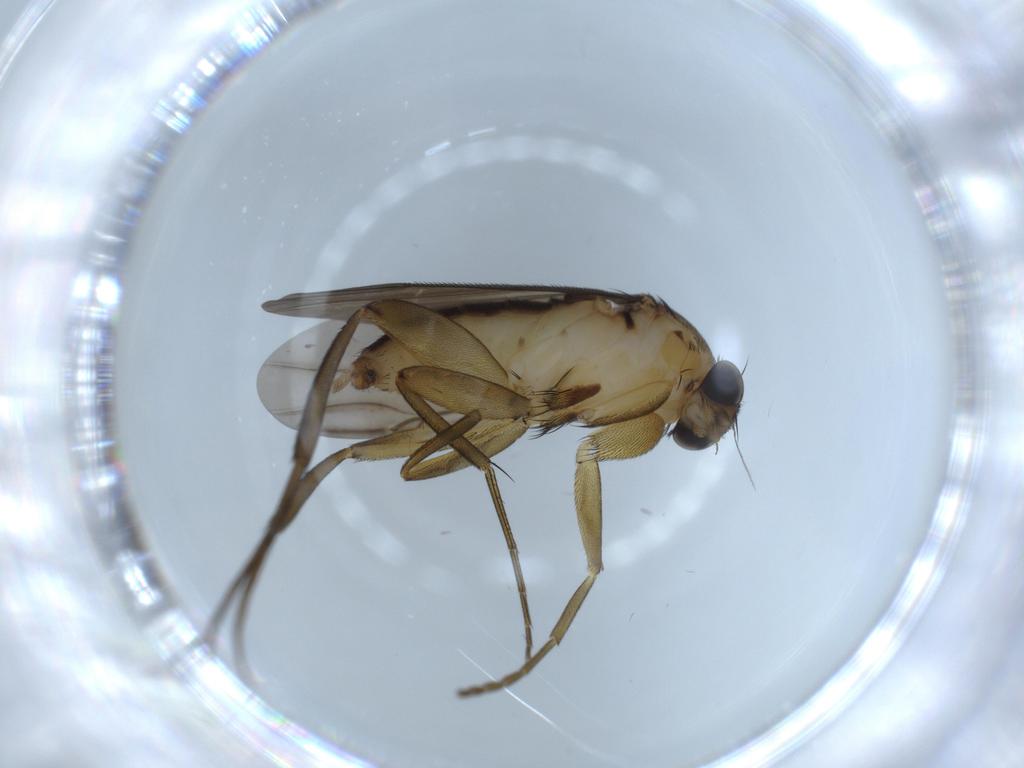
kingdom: Animalia
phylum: Arthropoda
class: Insecta
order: Diptera
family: Phoridae
